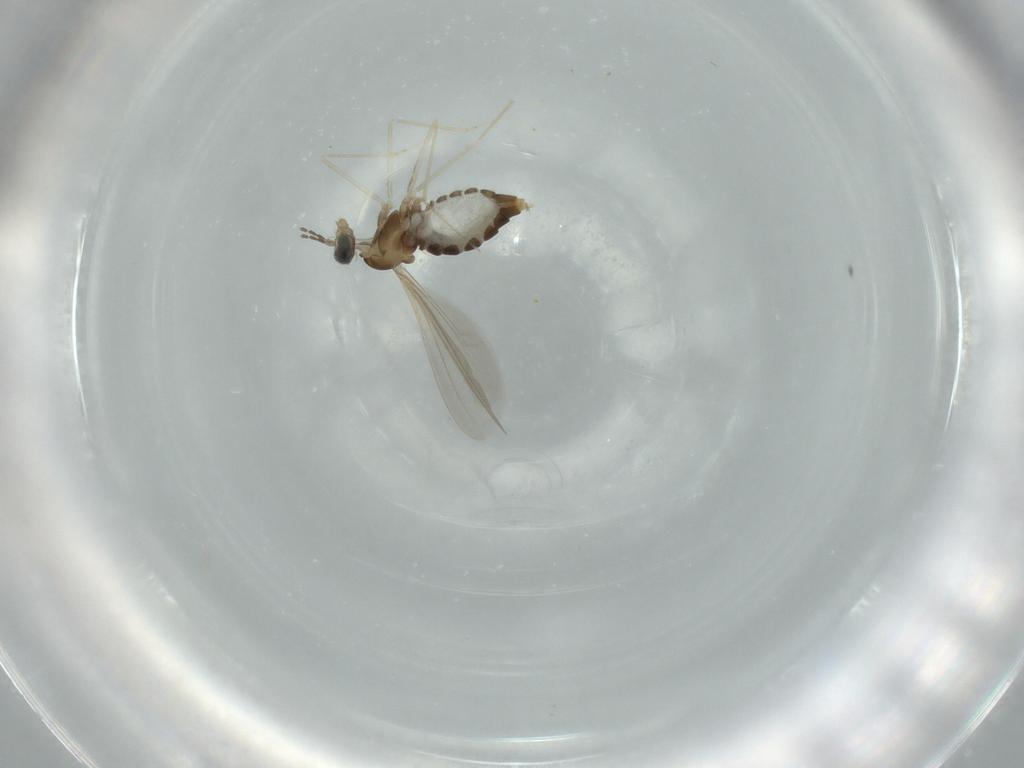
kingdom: Animalia
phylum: Arthropoda
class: Insecta
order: Diptera
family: Cecidomyiidae
